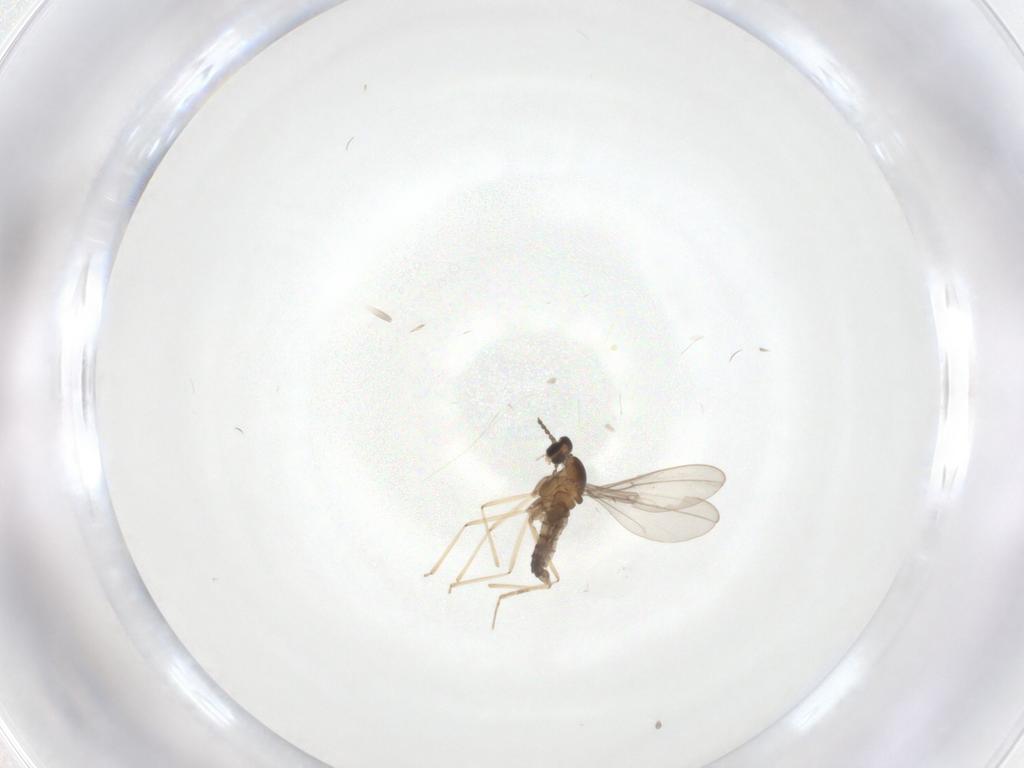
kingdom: Animalia
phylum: Arthropoda
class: Insecta
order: Diptera
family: Cecidomyiidae
